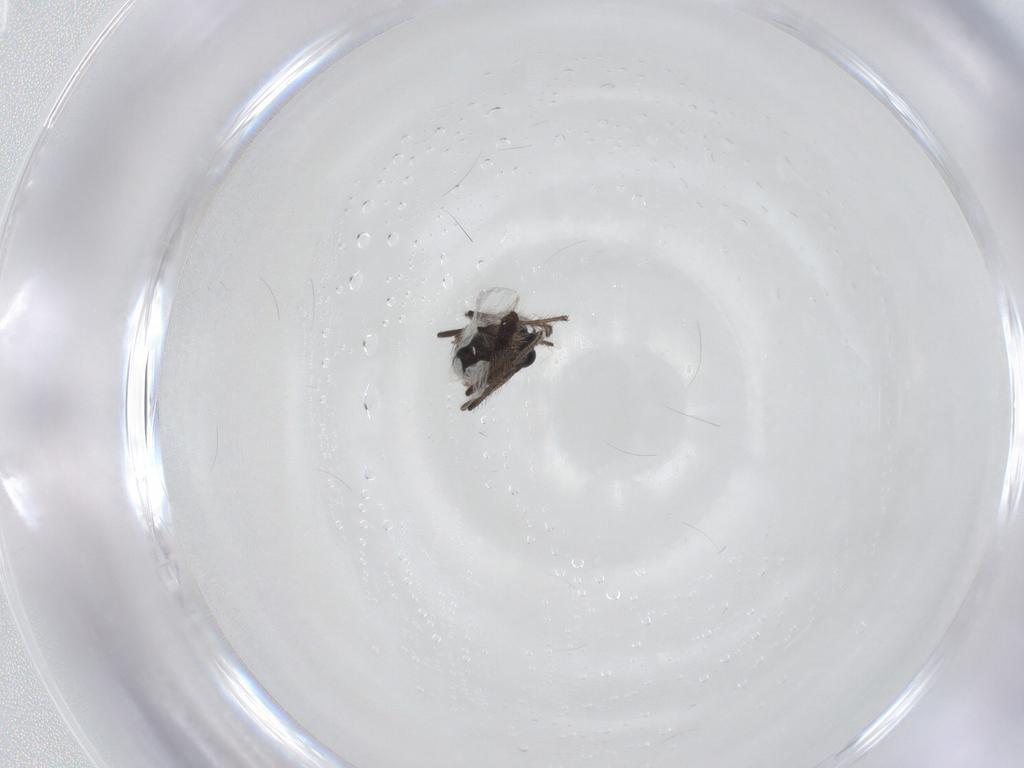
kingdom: Animalia
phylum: Arthropoda
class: Insecta
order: Diptera
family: Chironomidae
